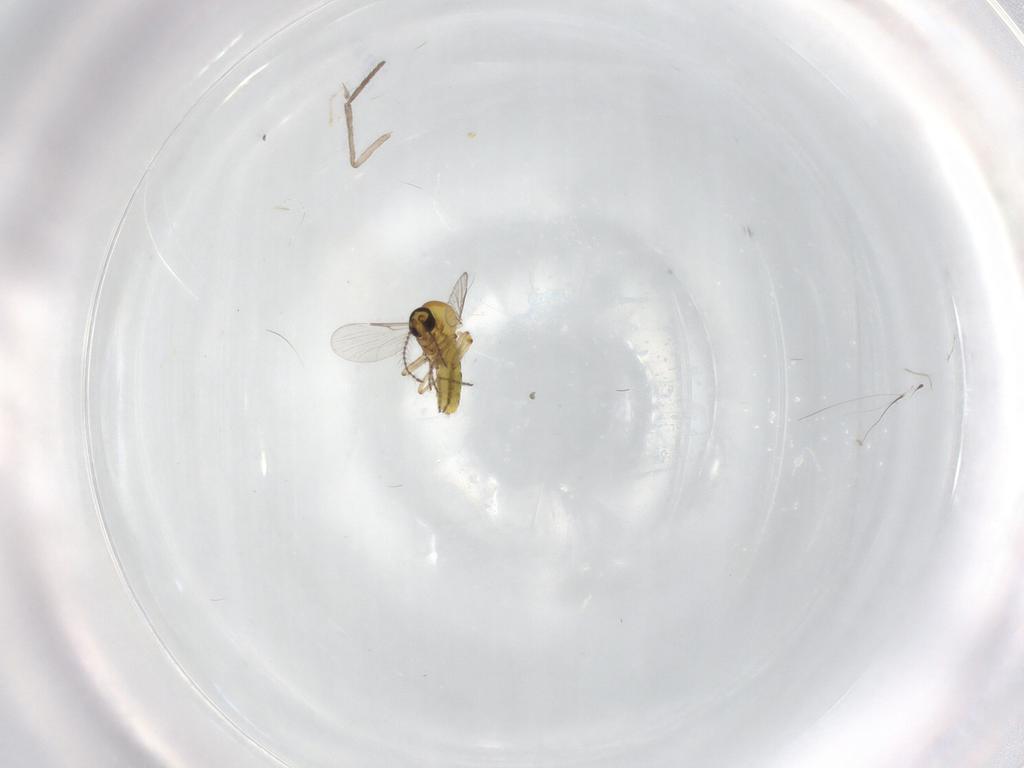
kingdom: Animalia
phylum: Arthropoda
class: Insecta
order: Diptera
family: Psychodidae
